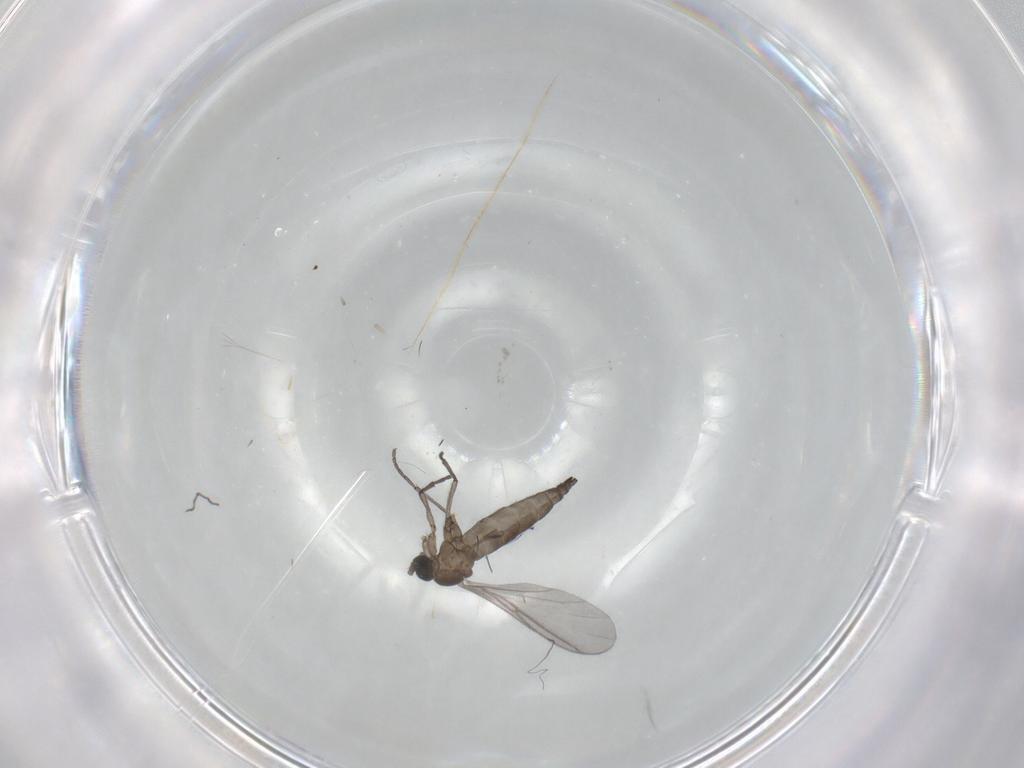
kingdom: Animalia
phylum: Arthropoda
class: Insecta
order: Diptera
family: Sciaridae
